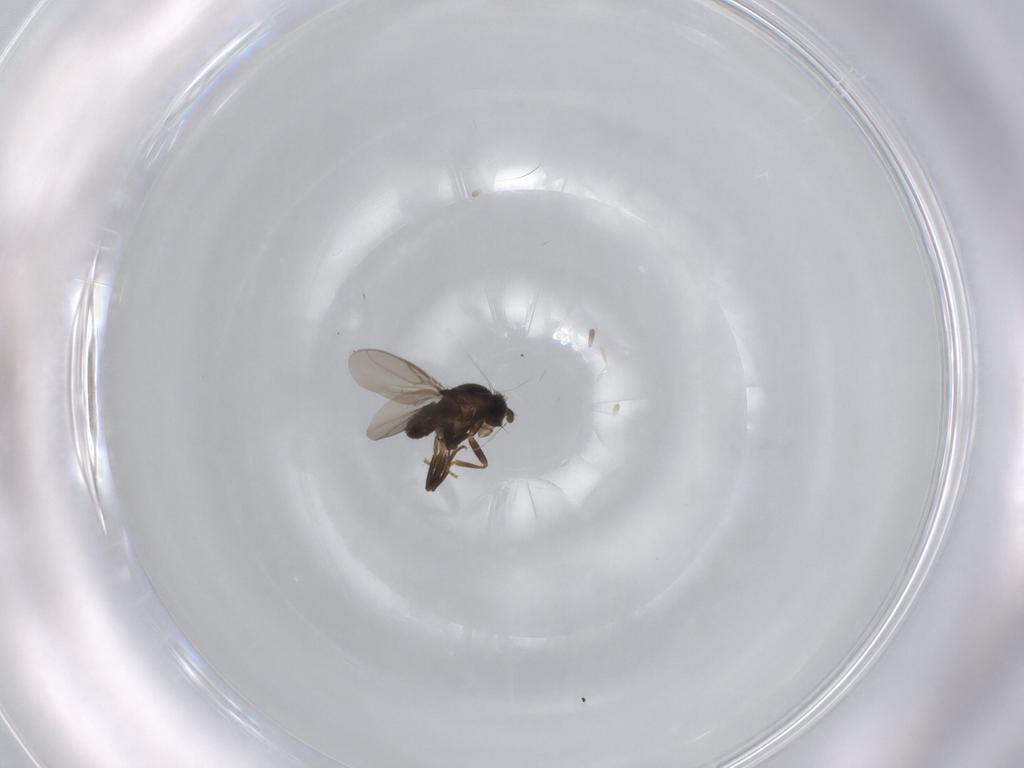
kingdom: Animalia
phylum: Arthropoda
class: Insecta
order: Diptera
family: Sphaeroceridae
